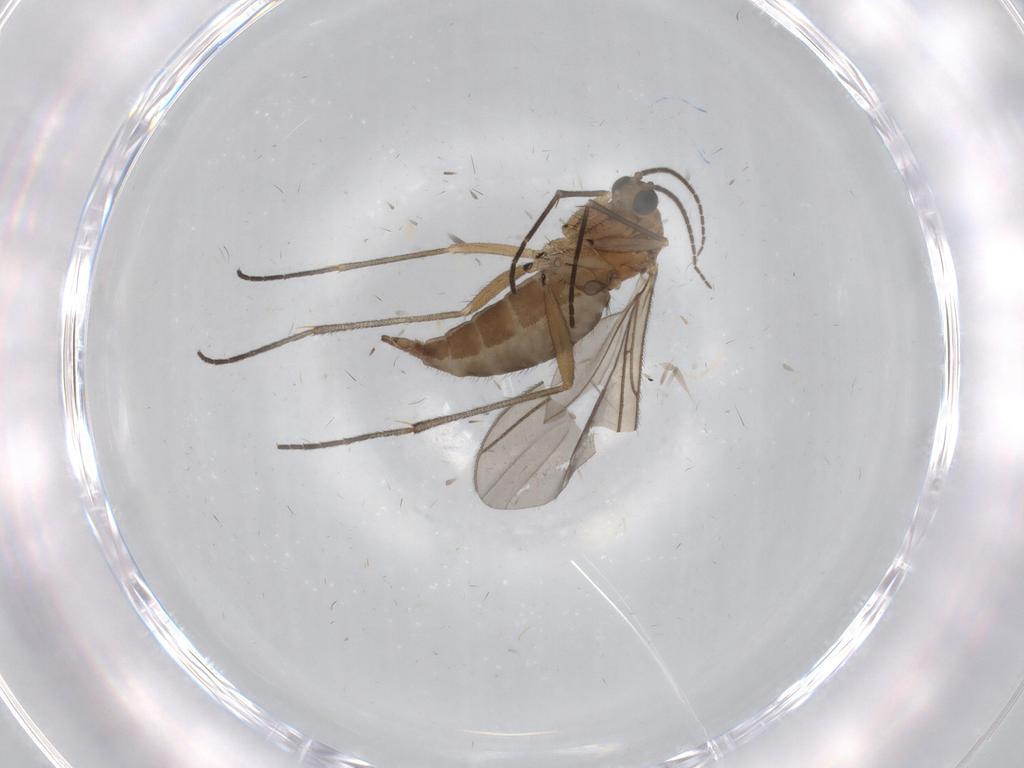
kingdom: Animalia
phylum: Arthropoda
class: Insecta
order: Diptera
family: Sciaridae
